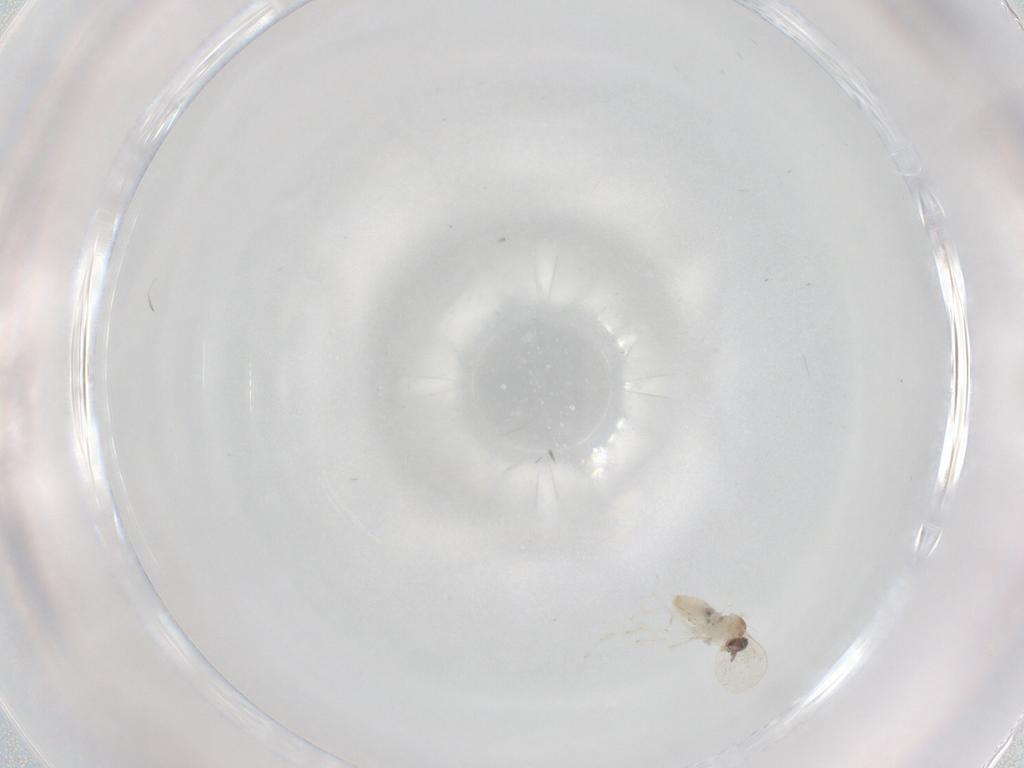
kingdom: Animalia
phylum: Arthropoda
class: Insecta
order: Diptera
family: Cecidomyiidae
